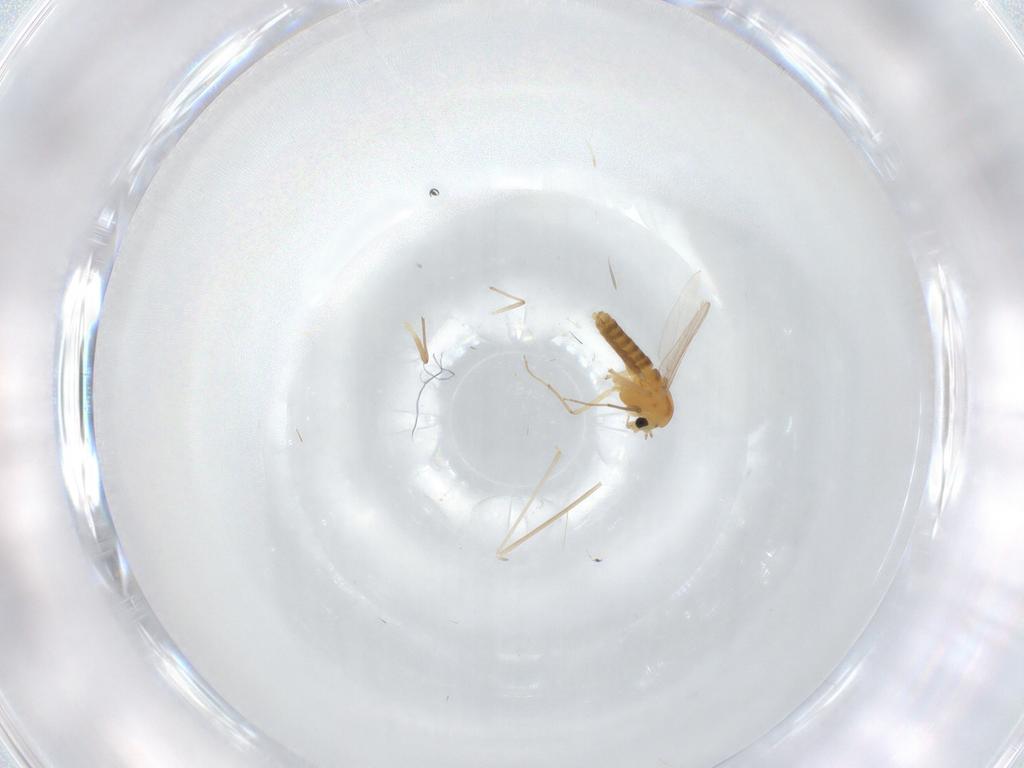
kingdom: Animalia
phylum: Arthropoda
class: Insecta
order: Diptera
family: Chironomidae
